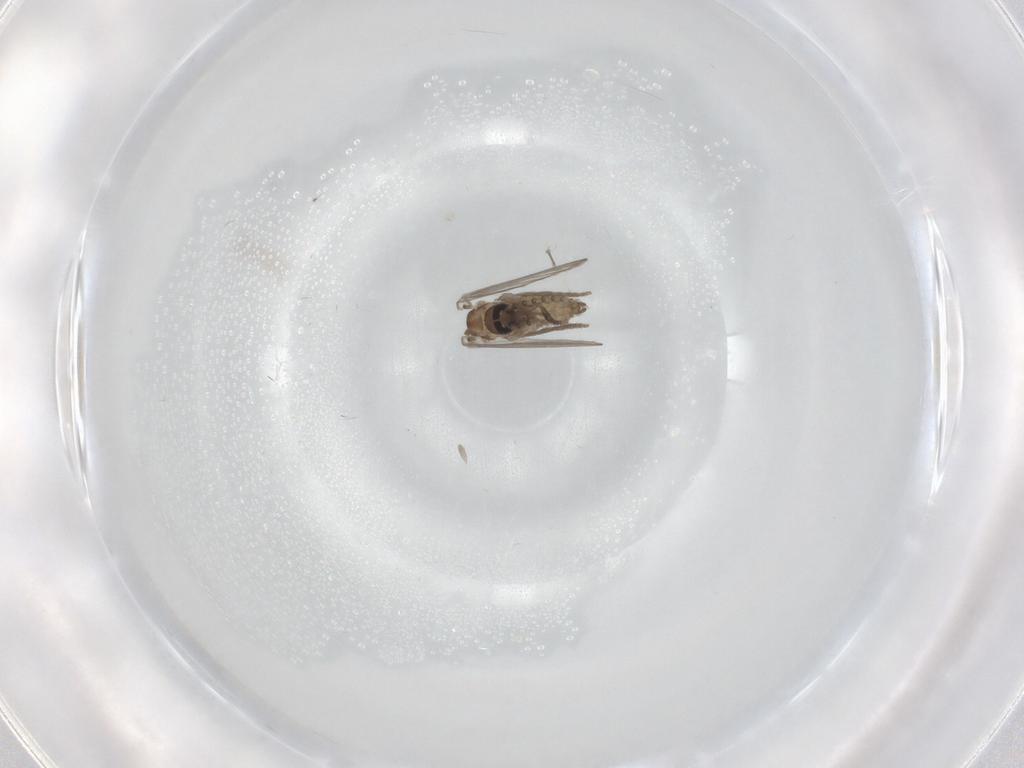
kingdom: Animalia
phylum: Arthropoda
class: Insecta
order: Diptera
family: Psychodidae
